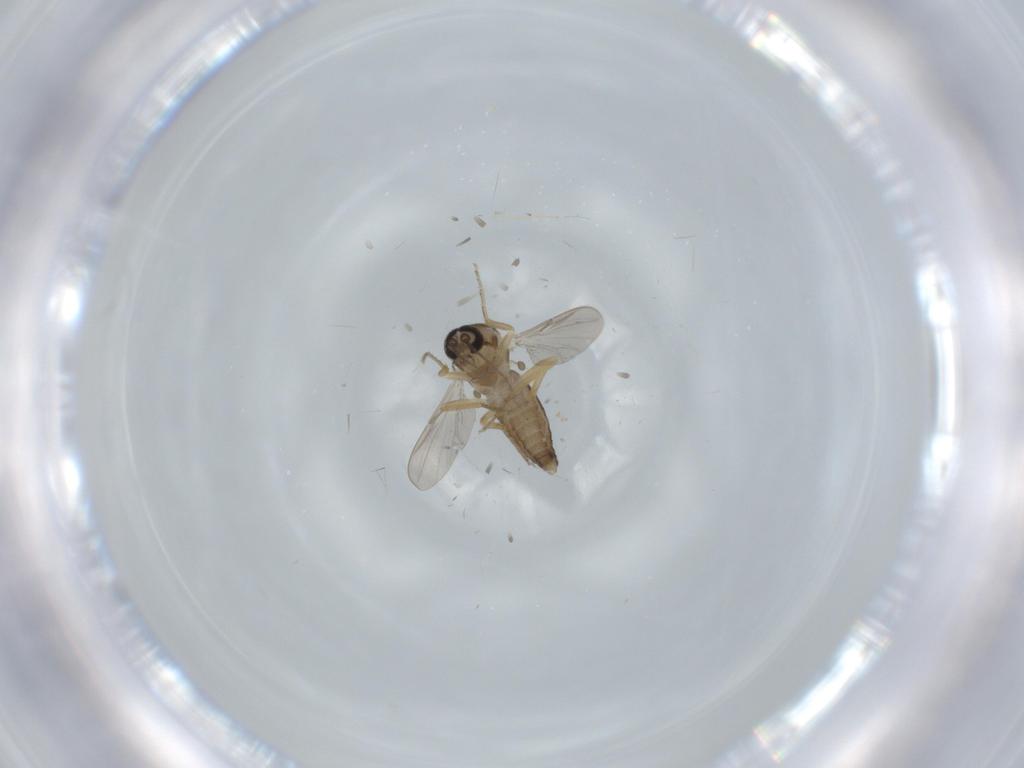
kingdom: Animalia
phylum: Arthropoda
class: Insecta
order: Diptera
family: Ceratopogonidae
